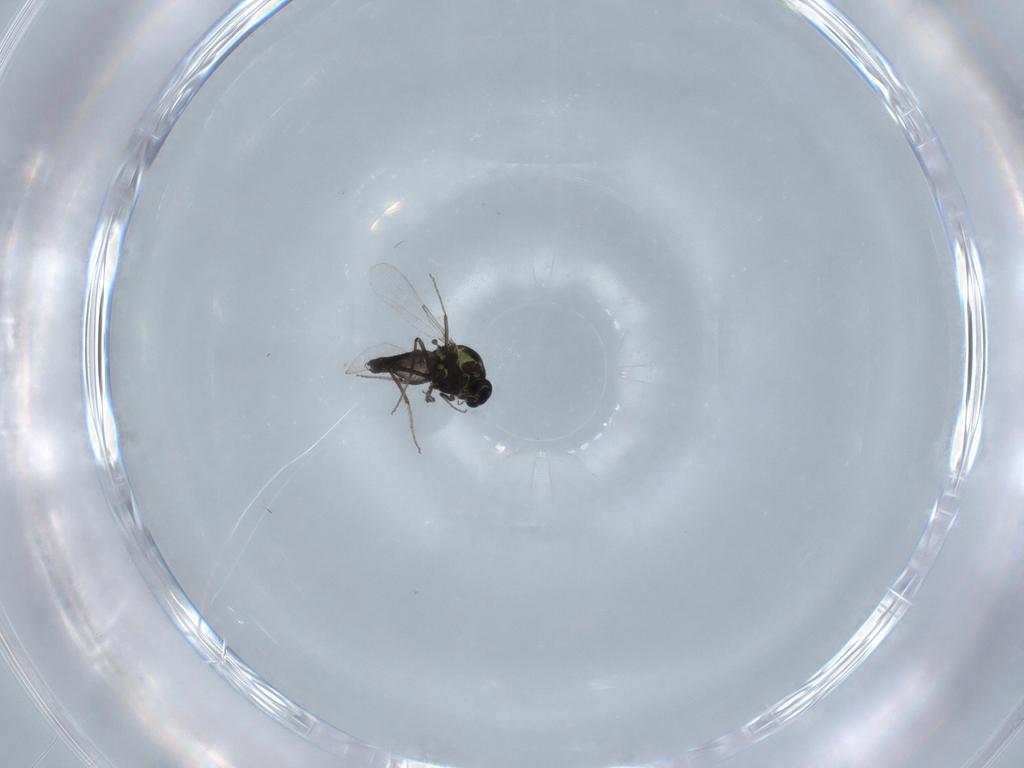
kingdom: Animalia
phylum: Arthropoda
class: Insecta
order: Diptera
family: Ceratopogonidae
